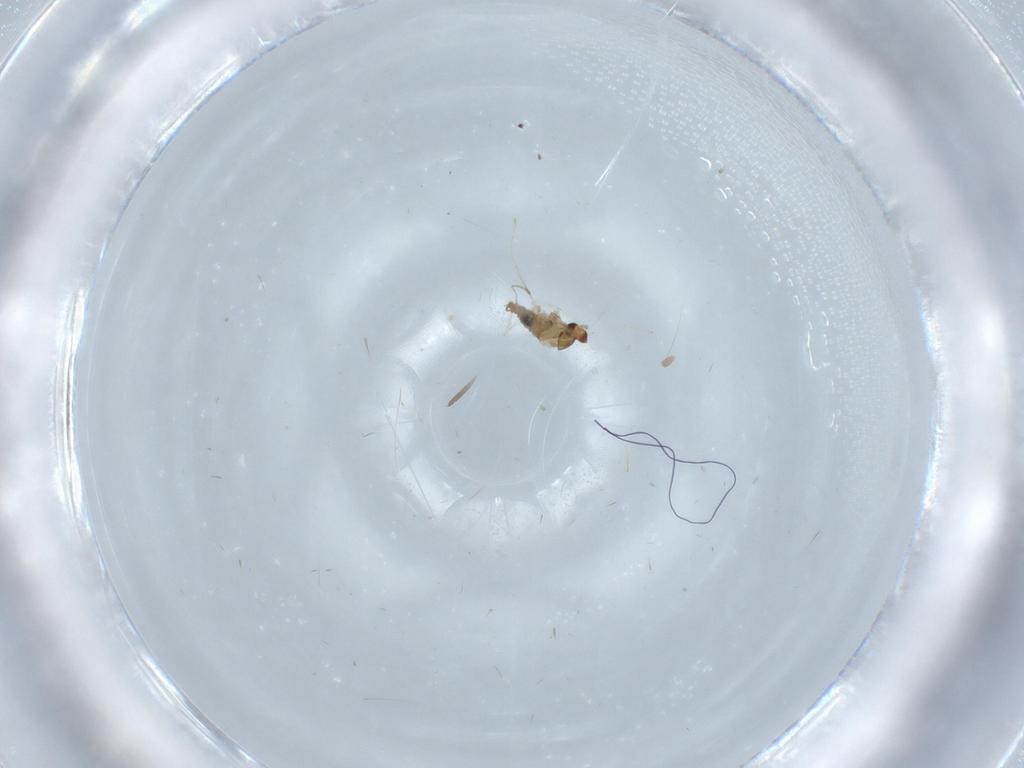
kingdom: Animalia
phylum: Arthropoda
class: Insecta
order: Diptera
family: Cecidomyiidae
